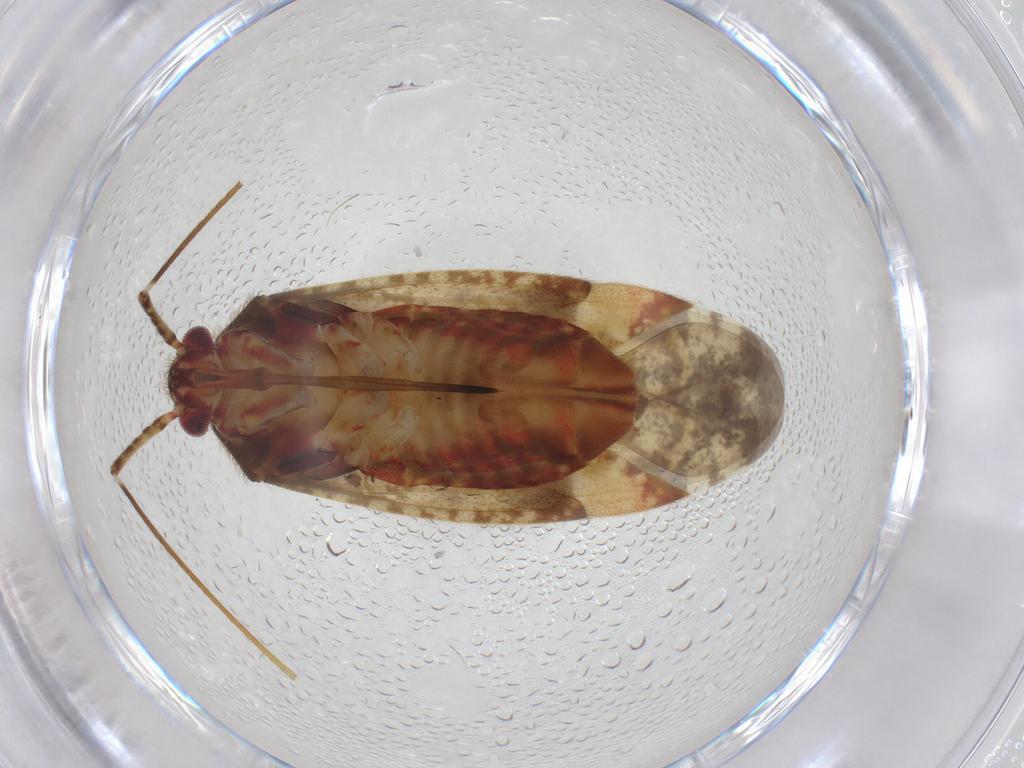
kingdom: Animalia
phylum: Arthropoda
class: Insecta
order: Hemiptera
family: Miridae
